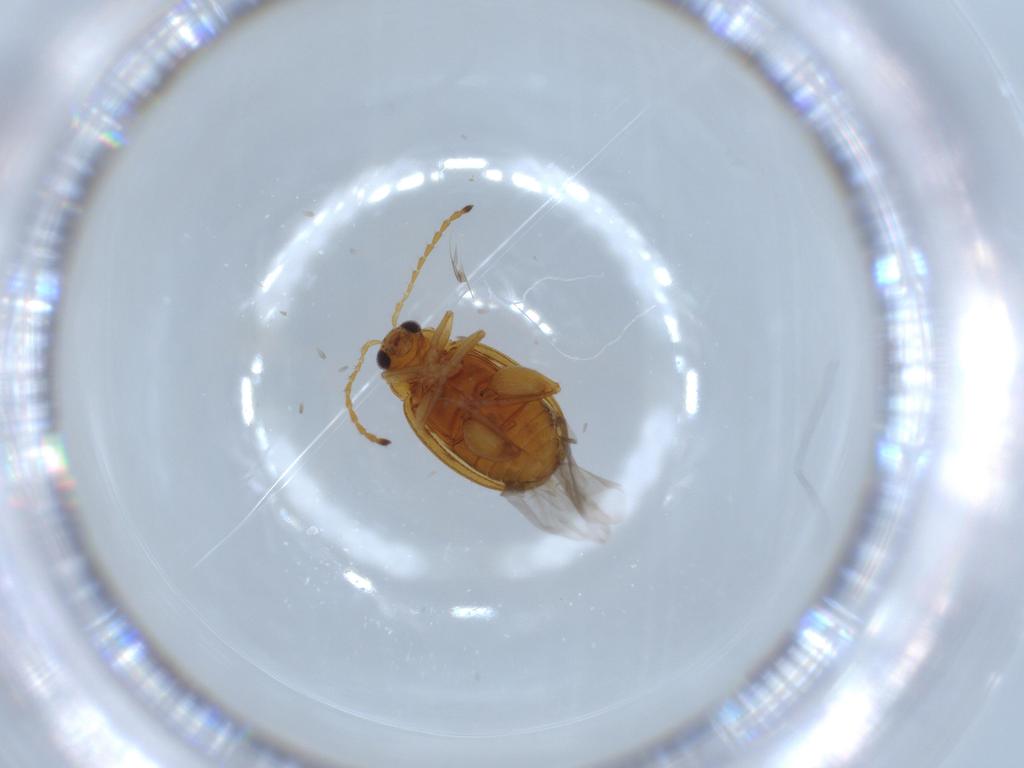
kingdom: Animalia
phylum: Arthropoda
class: Insecta
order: Coleoptera
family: Chrysomelidae
